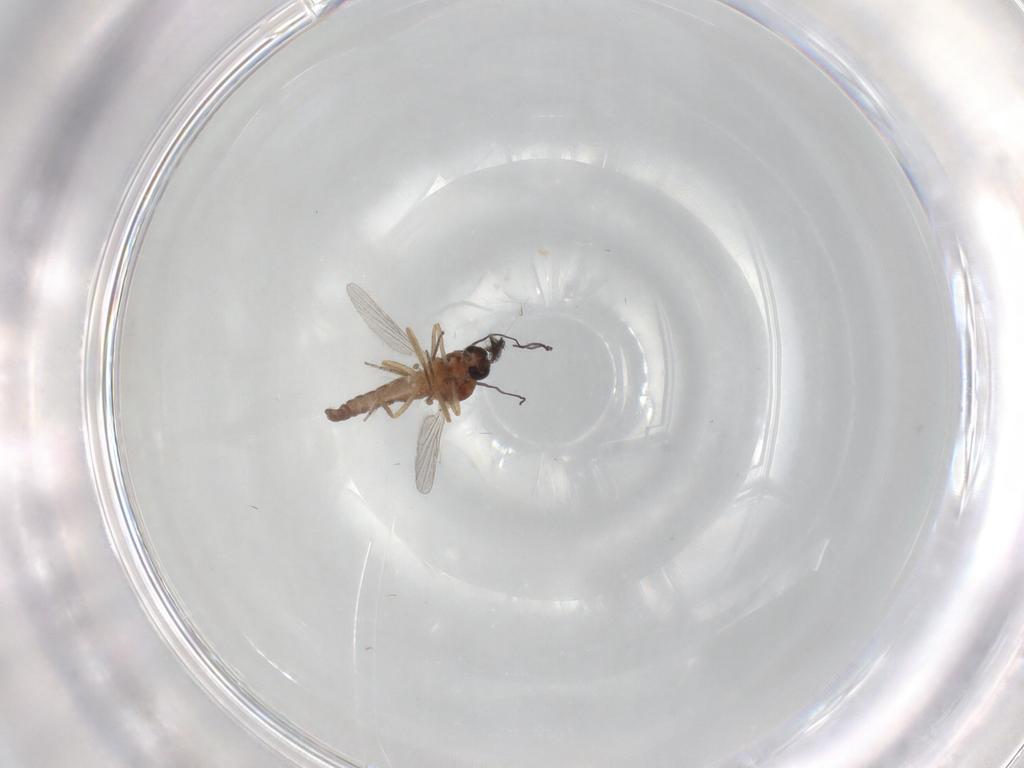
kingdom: Animalia
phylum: Arthropoda
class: Insecta
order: Diptera
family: Ceratopogonidae
